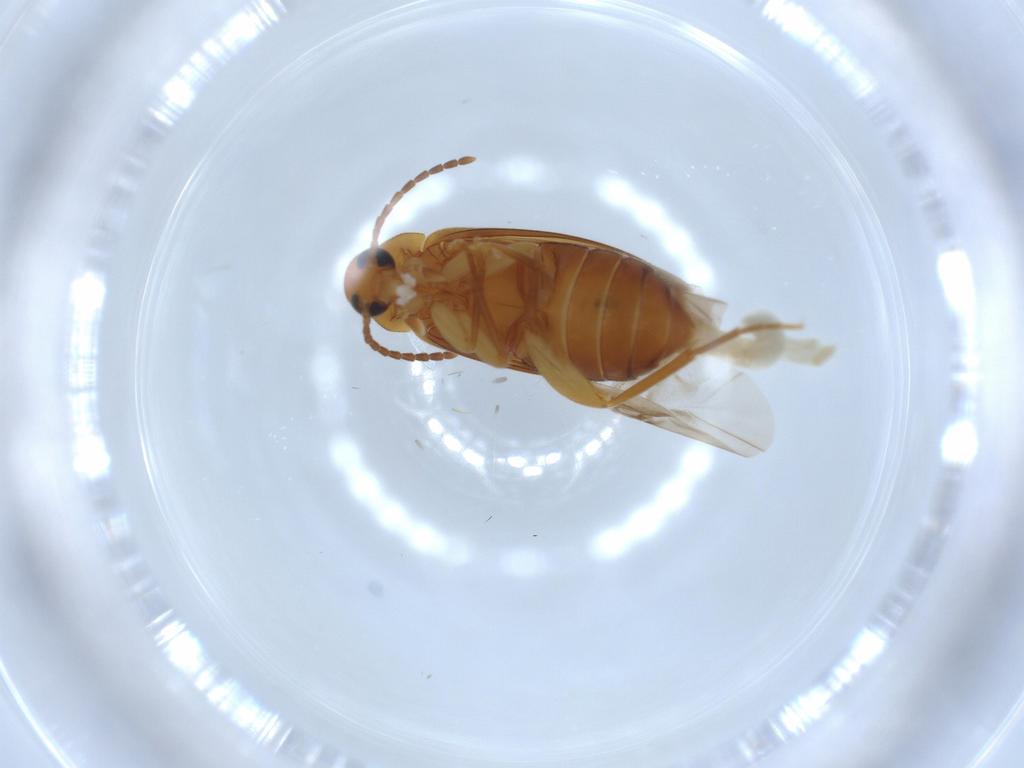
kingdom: Animalia
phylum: Arthropoda
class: Insecta
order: Coleoptera
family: Scraptiidae
